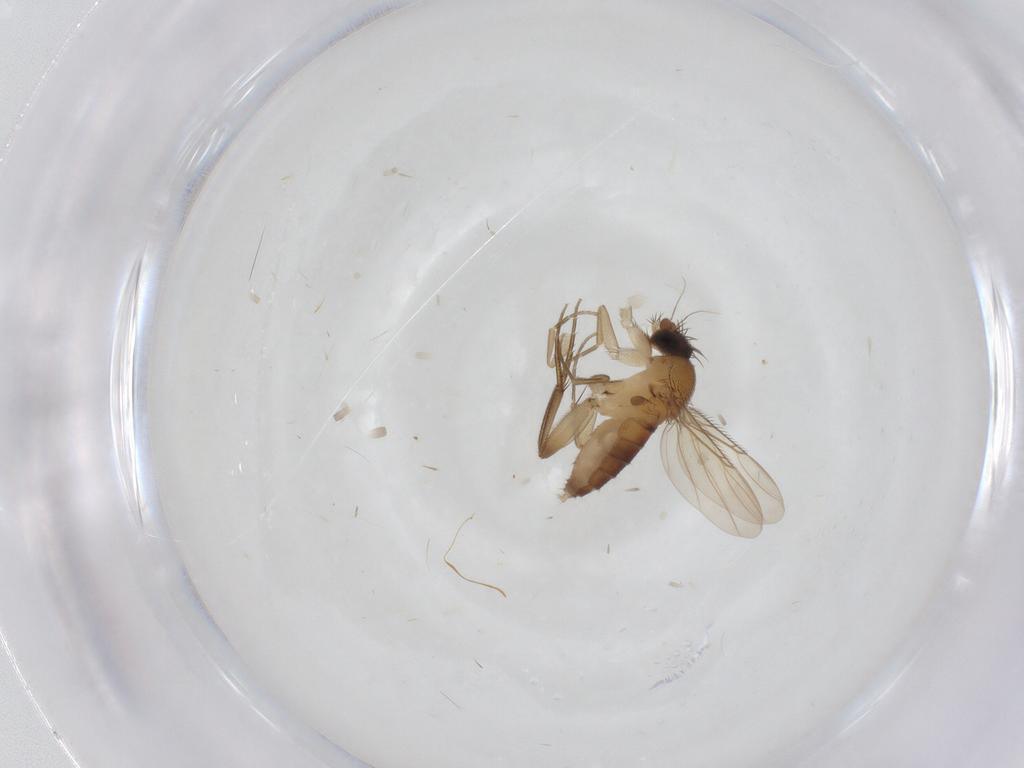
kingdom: Animalia
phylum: Arthropoda
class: Insecta
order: Diptera
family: Phoridae
